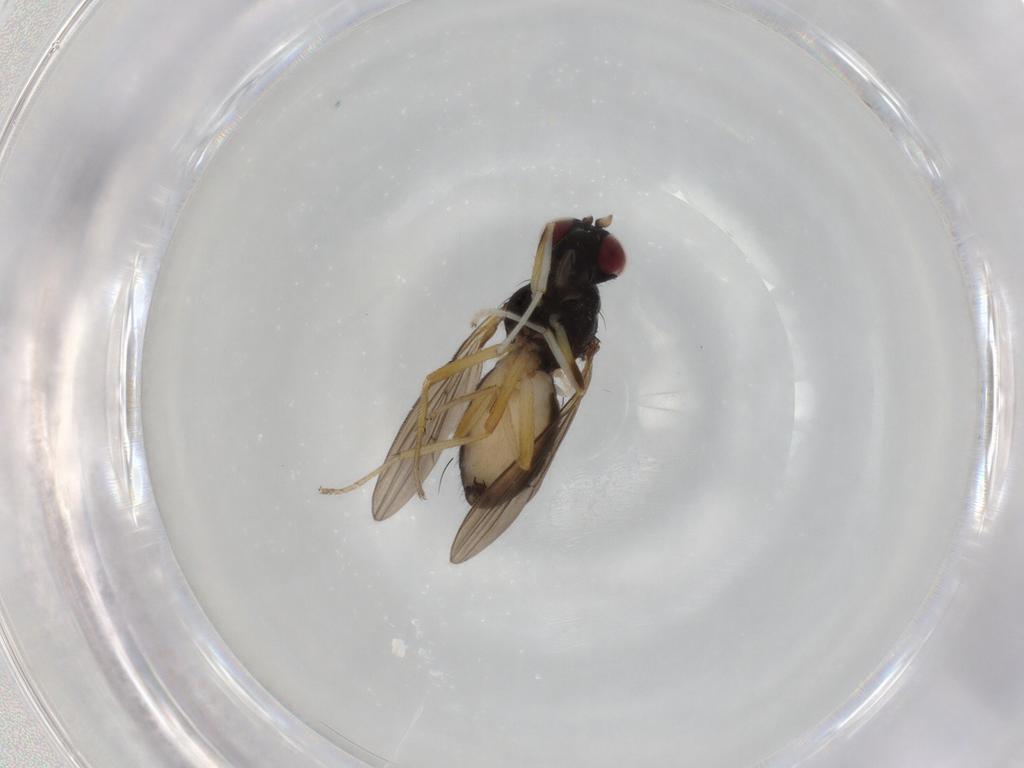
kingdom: Animalia
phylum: Arthropoda
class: Insecta
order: Diptera
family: Lauxaniidae
